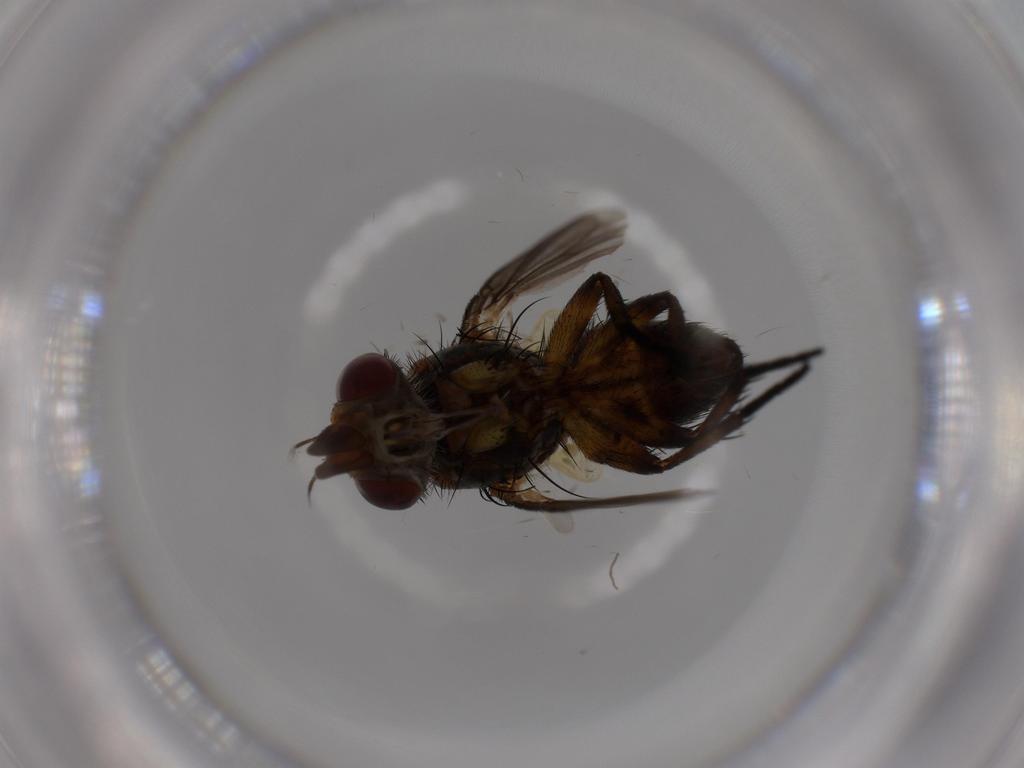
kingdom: Animalia
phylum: Arthropoda
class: Insecta
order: Diptera
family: Tachinidae
